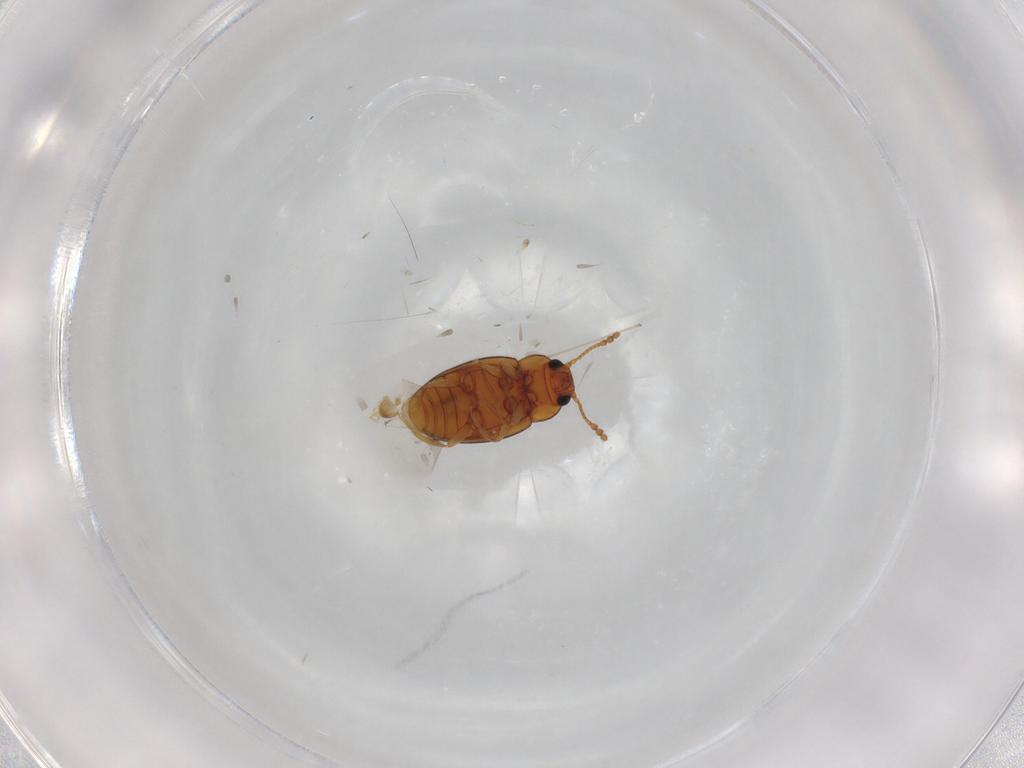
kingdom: Animalia
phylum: Arthropoda
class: Insecta
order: Coleoptera
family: Erotylidae
